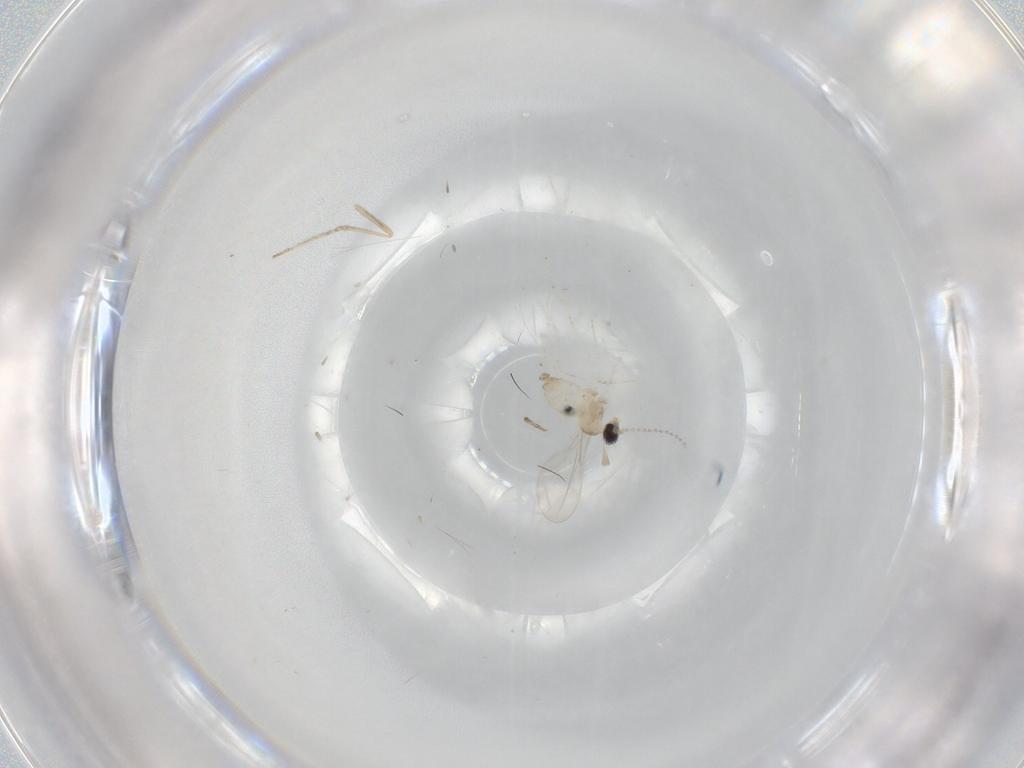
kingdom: Animalia
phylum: Arthropoda
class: Insecta
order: Diptera
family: Cecidomyiidae
